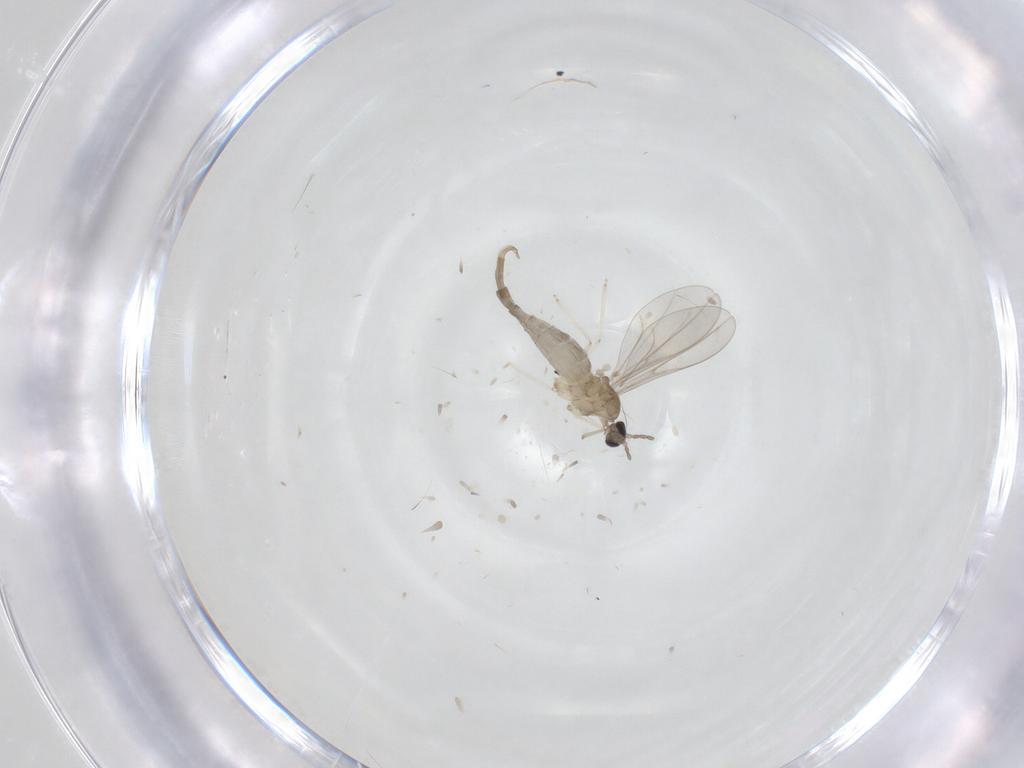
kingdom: Animalia
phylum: Arthropoda
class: Insecta
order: Diptera
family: Cecidomyiidae
